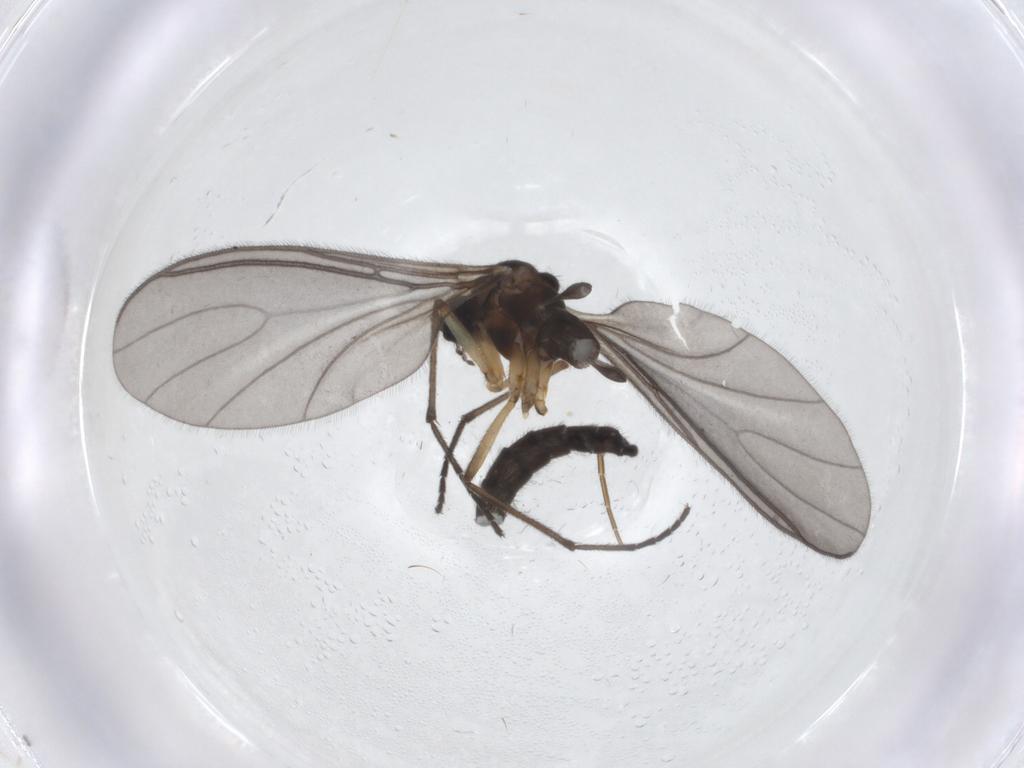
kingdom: Animalia
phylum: Arthropoda
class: Insecta
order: Diptera
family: Sciaridae
